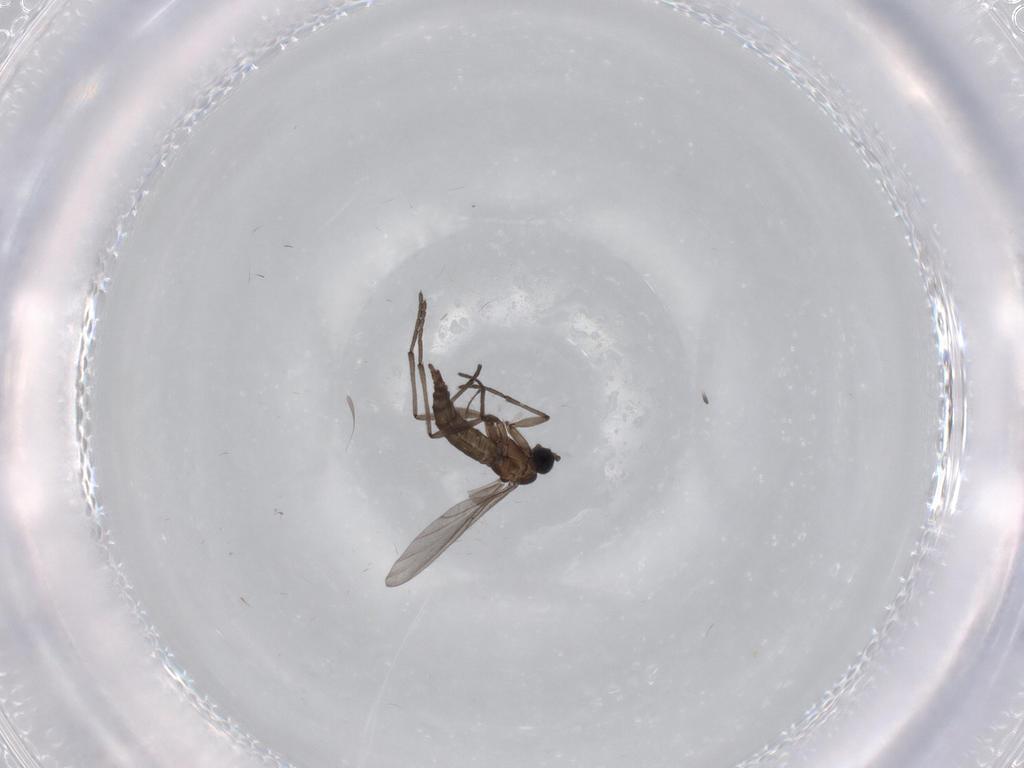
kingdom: Animalia
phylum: Arthropoda
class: Insecta
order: Diptera
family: Chironomidae
